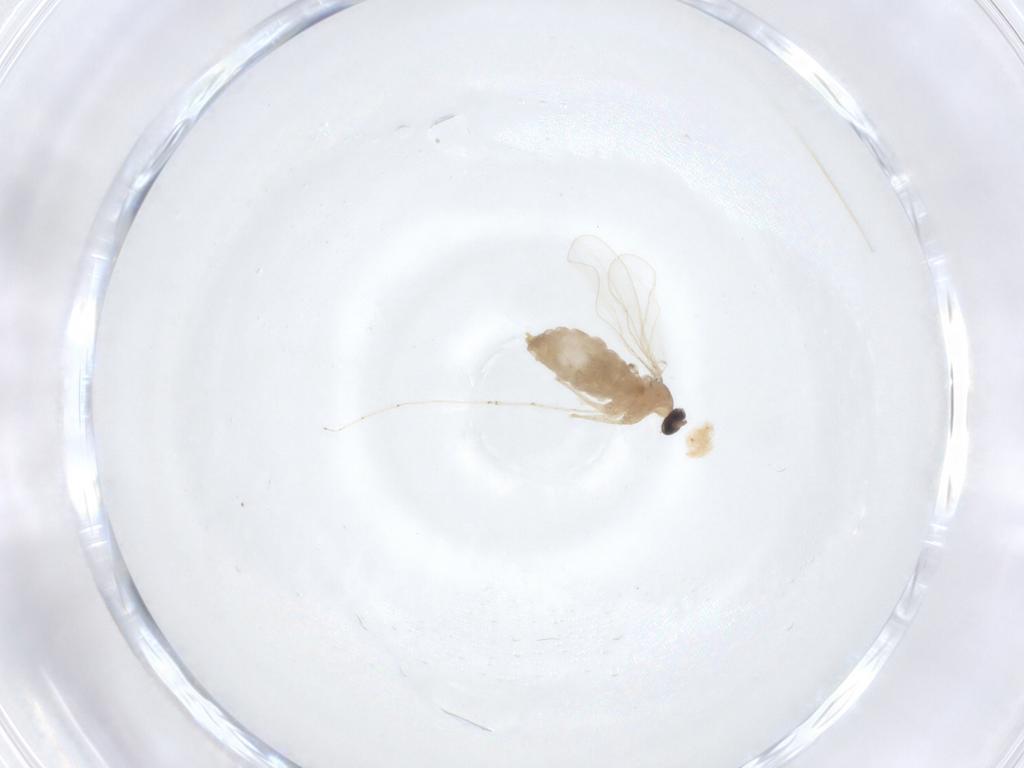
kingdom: Animalia
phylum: Arthropoda
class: Insecta
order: Diptera
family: Cecidomyiidae
